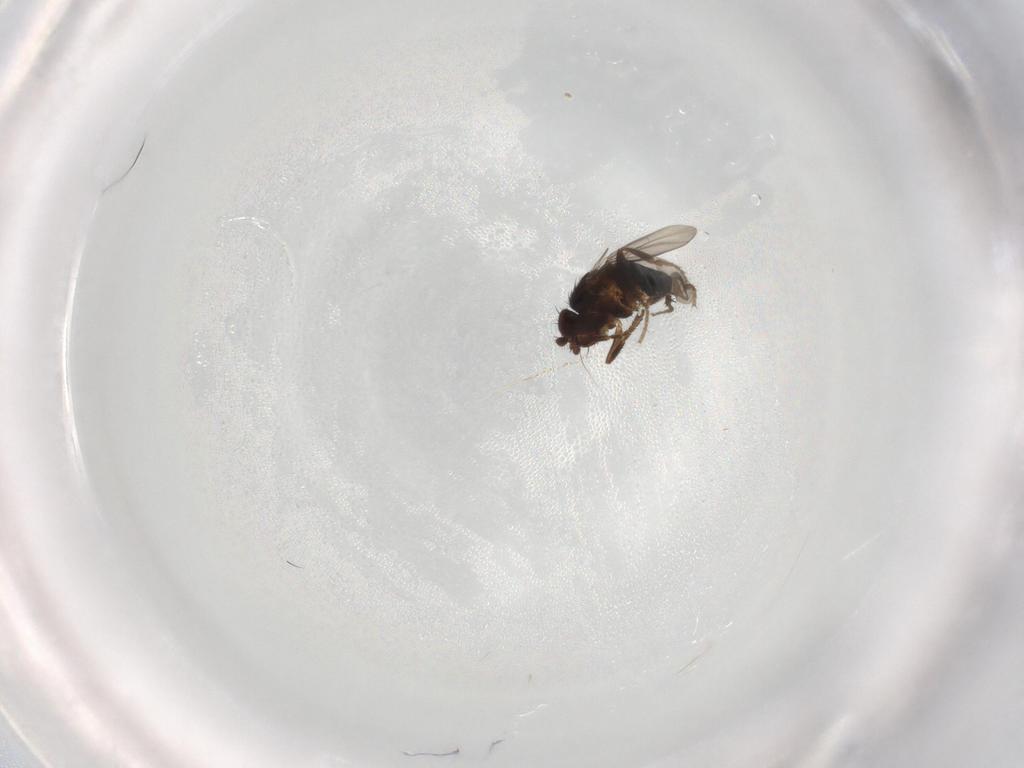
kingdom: Animalia
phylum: Arthropoda
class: Insecta
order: Diptera
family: Sphaeroceridae
